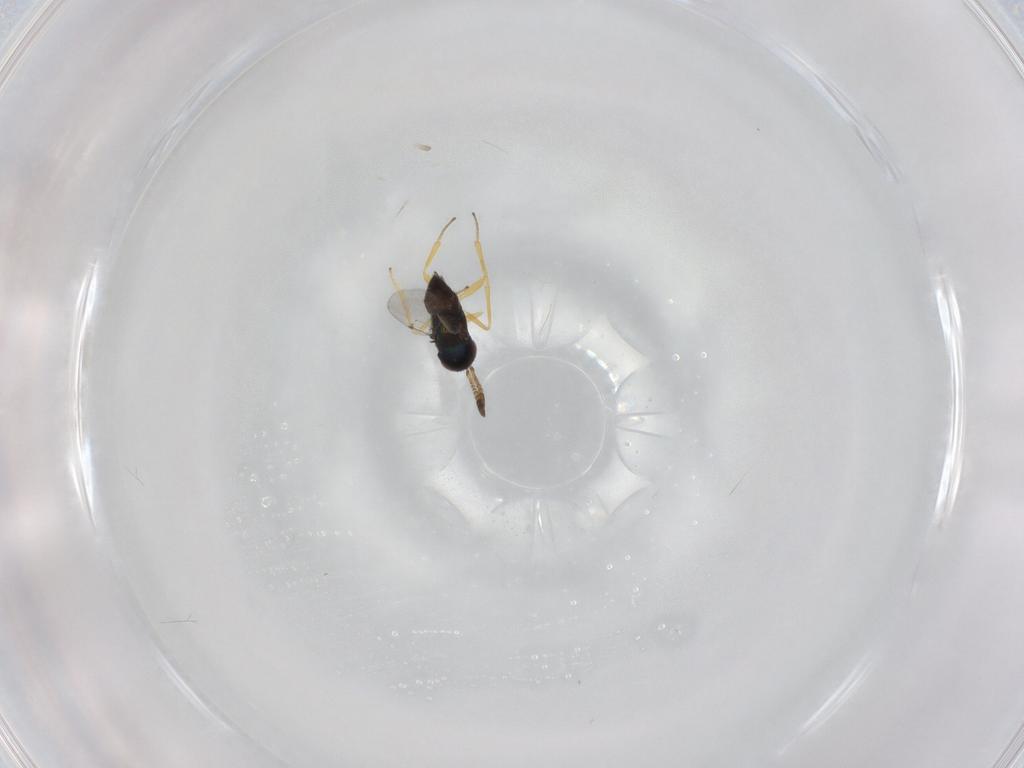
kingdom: Animalia
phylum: Arthropoda
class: Insecta
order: Hymenoptera
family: Encyrtidae
